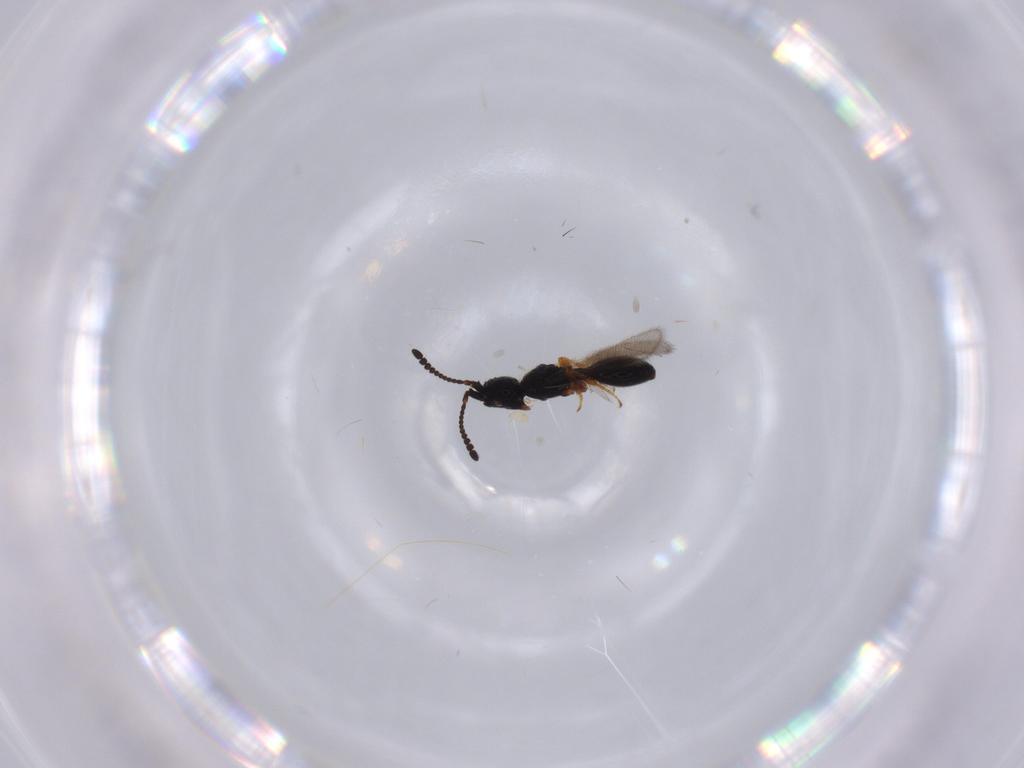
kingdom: Animalia
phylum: Arthropoda
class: Insecta
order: Hymenoptera
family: Diapriidae
